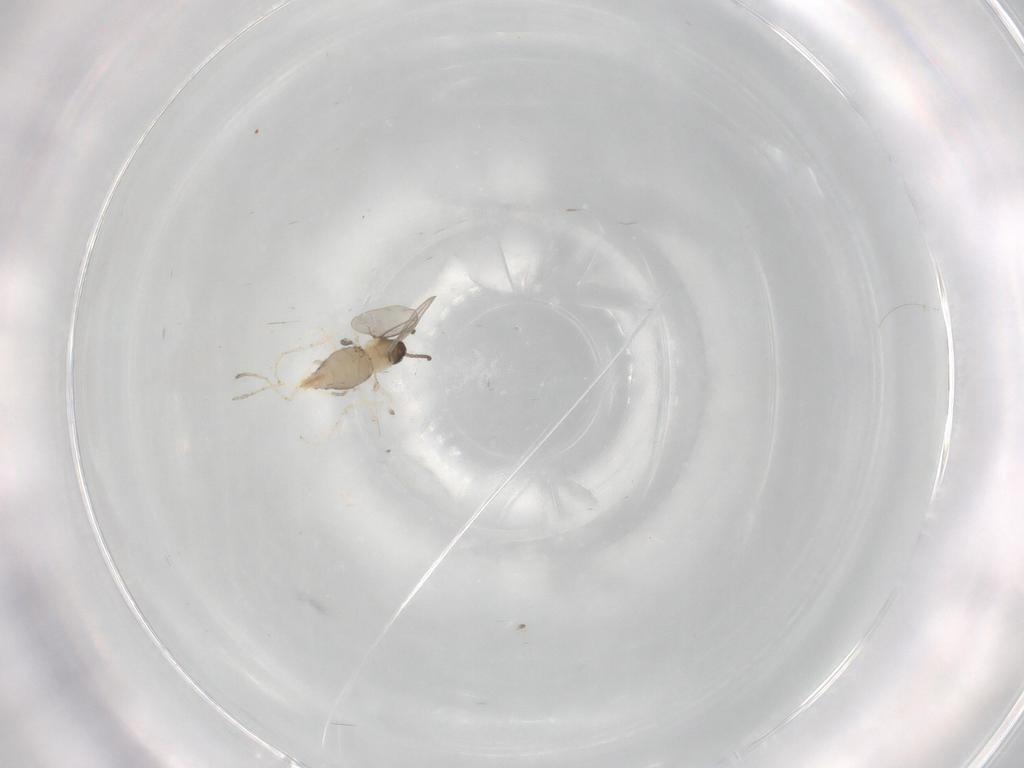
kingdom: Animalia
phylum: Arthropoda
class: Insecta
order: Diptera
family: Cecidomyiidae
